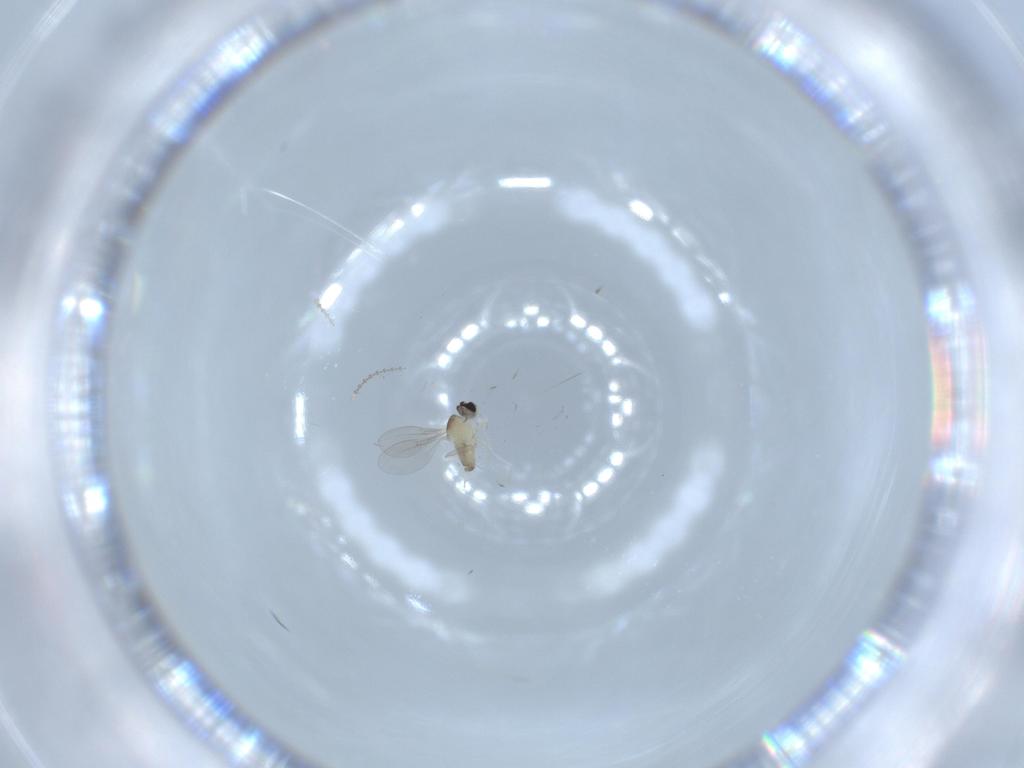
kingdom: Animalia
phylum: Arthropoda
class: Insecta
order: Diptera
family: Cecidomyiidae
